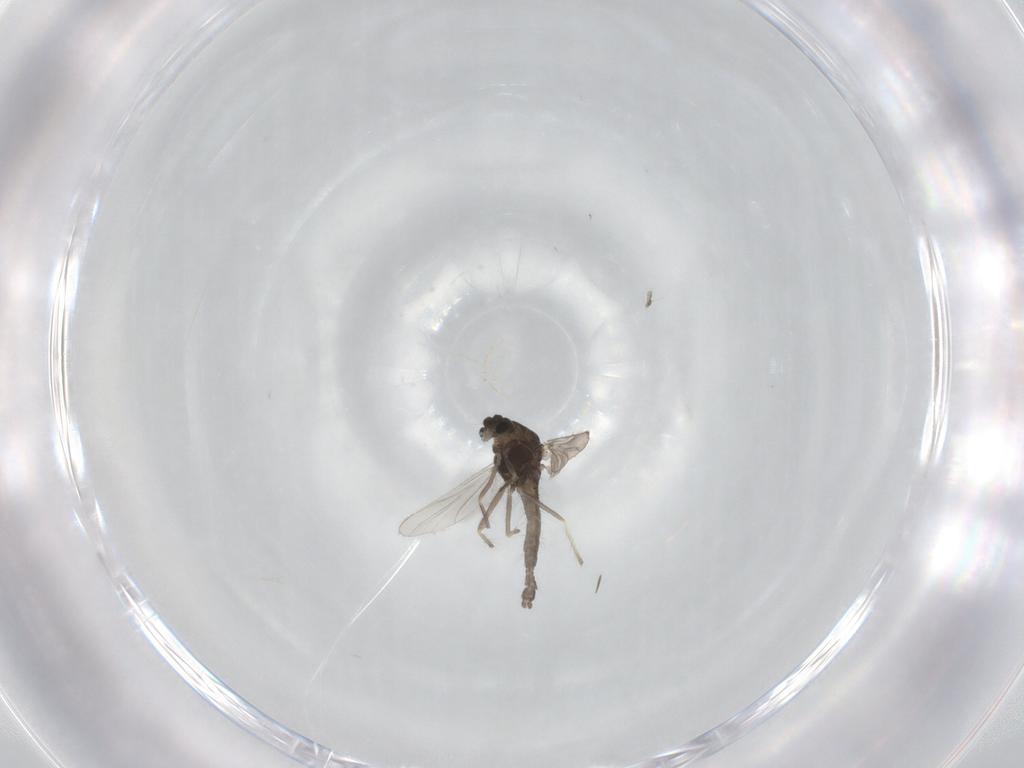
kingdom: Animalia
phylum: Arthropoda
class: Insecta
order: Diptera
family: Chironomidae
